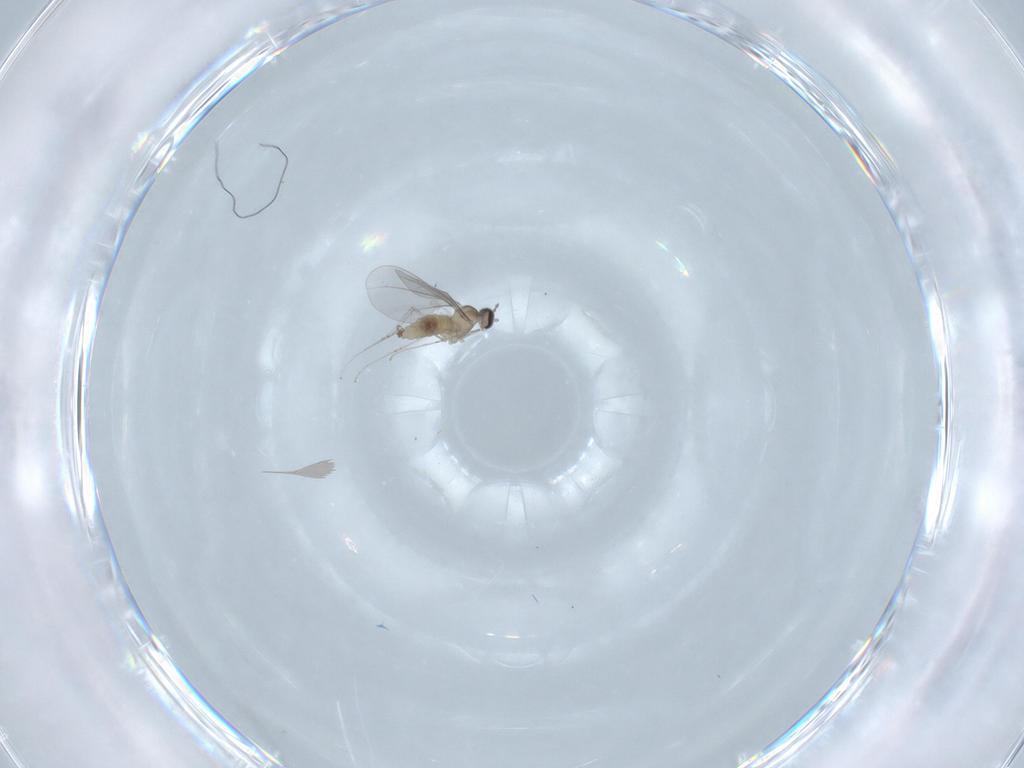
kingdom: Animalia
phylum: Arthropoda
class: Insecta
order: Diptera
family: Cecidomyiidae
